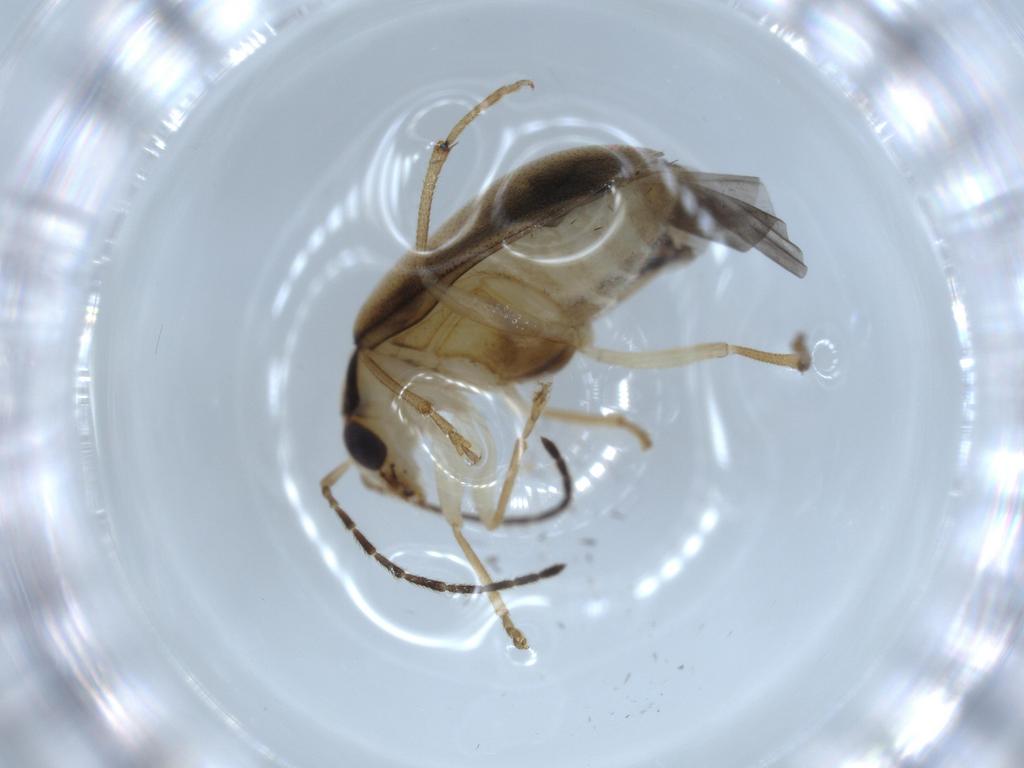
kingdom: Animalia
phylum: Arthropoda
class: Insecta
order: Coleoptera
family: Chrysomelidae
